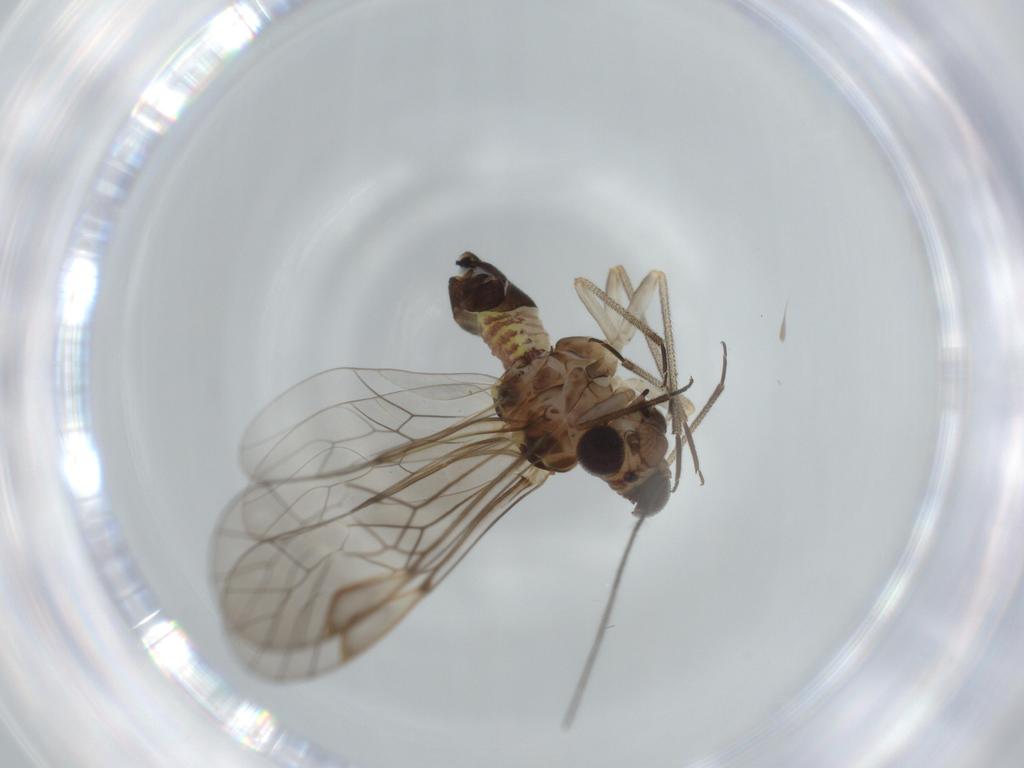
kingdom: Animalia
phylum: Arthropoda
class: Insecta
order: Psocodea
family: Psocidae
